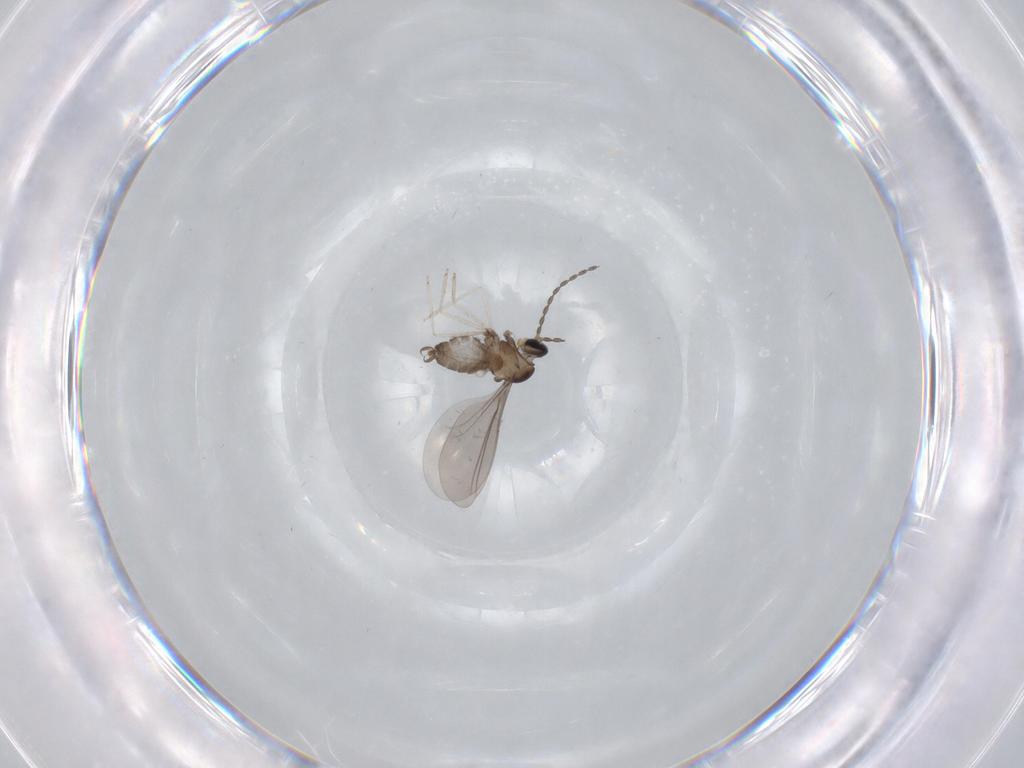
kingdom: Animalia
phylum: Arthropoda
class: Insecta
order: Diptera
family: Cecidomyiidae
